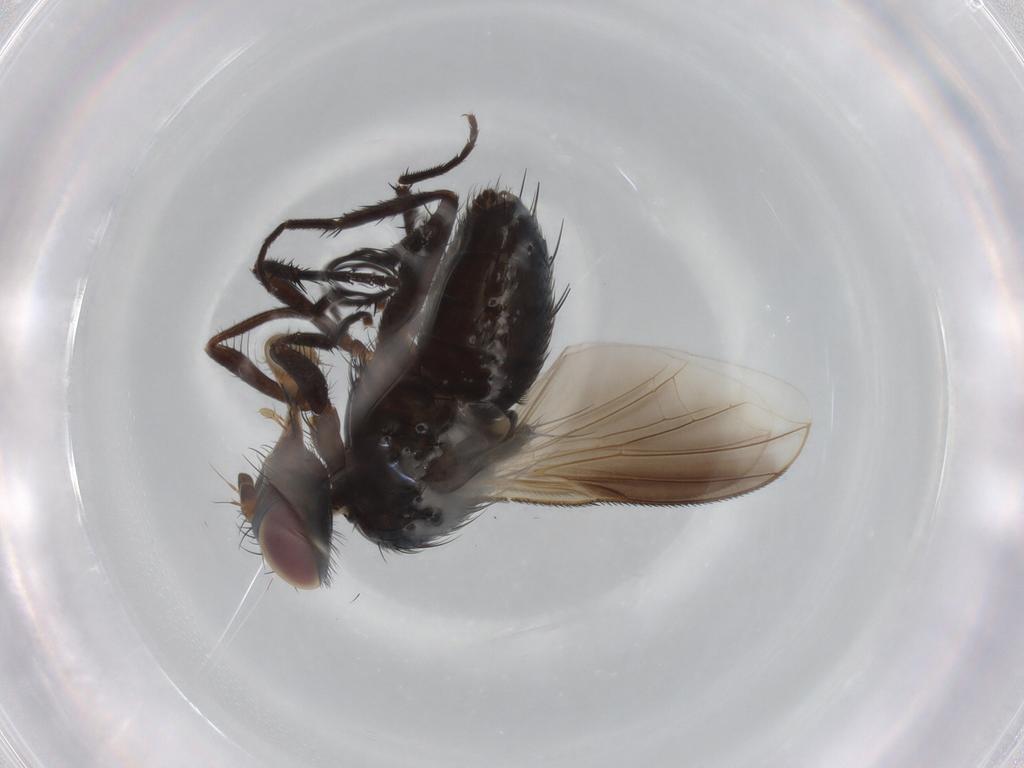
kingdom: Animalia
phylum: Arthropoda
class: Insecta
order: Diptera
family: Tachinidae
